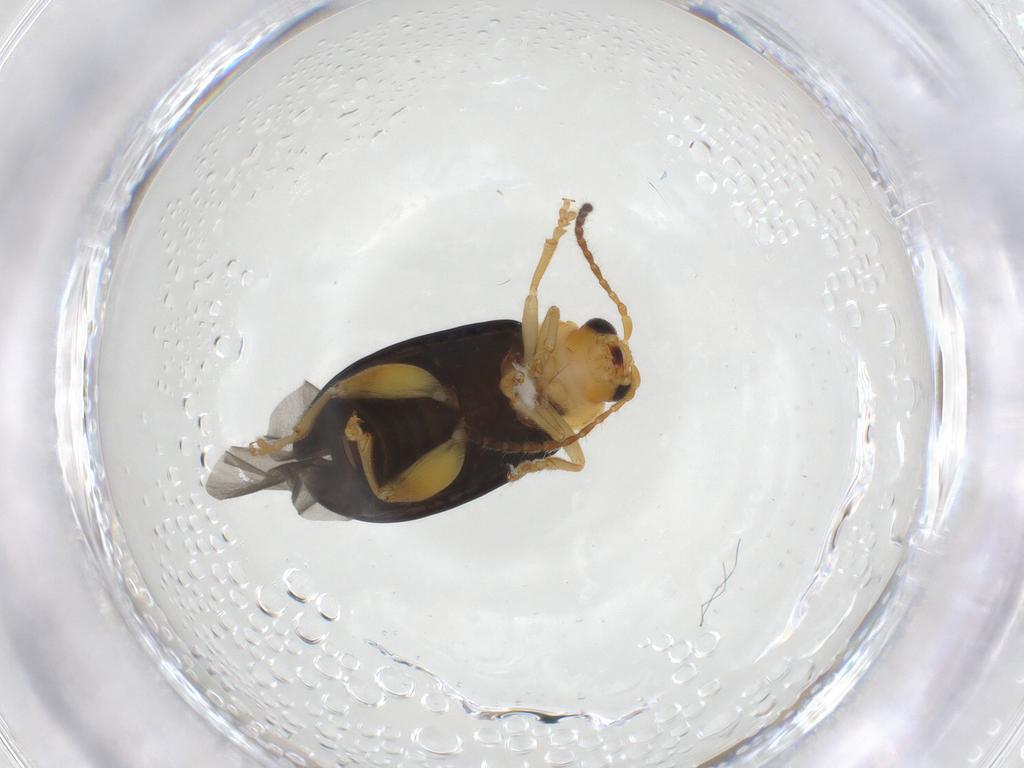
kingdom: Animalia
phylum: Arthropoda
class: Insecta
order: Coleoptera
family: Chrysomelidae
